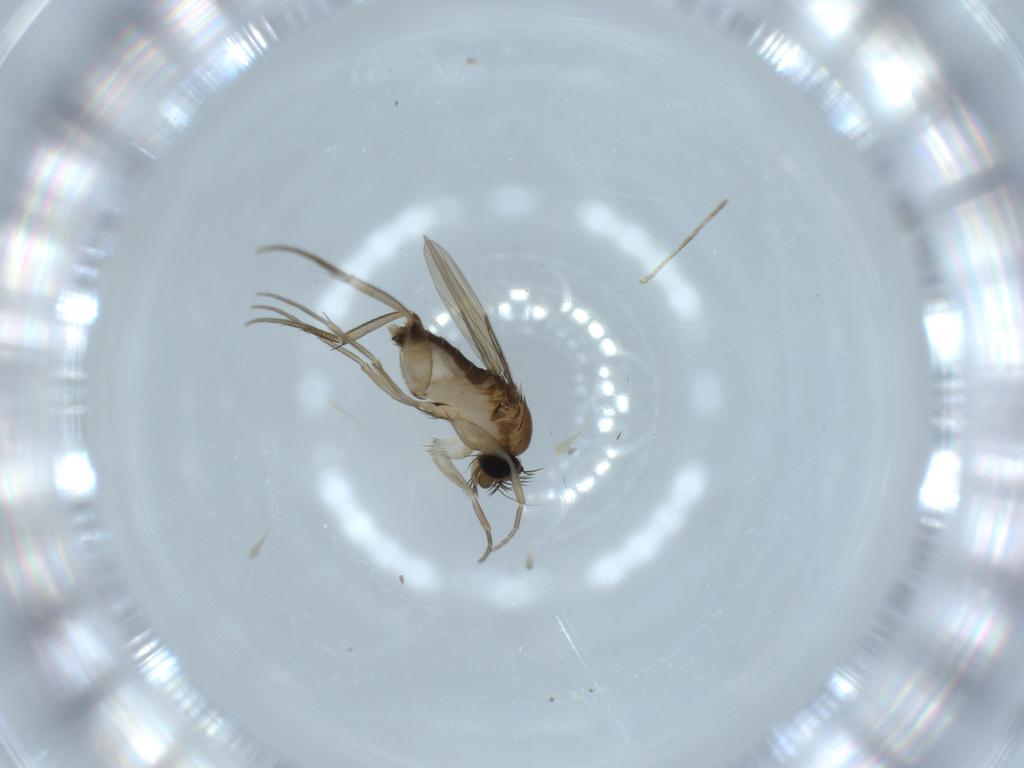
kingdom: Animalia
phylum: Arthropoda
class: Insecta
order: Diptera
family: Phoridae
